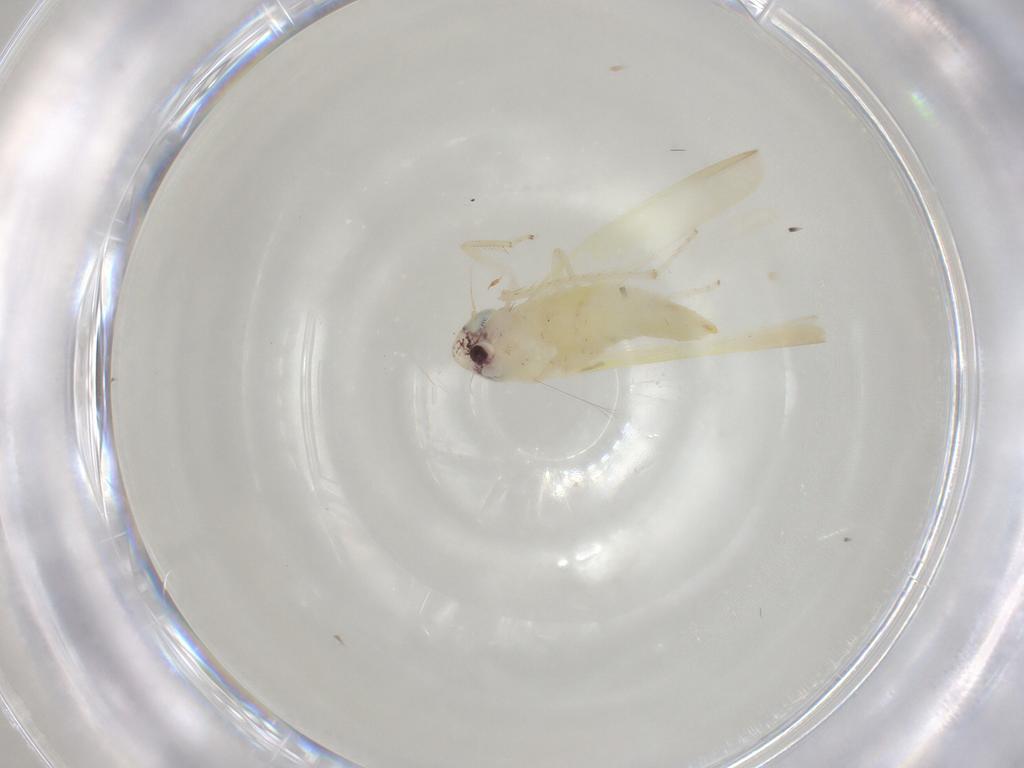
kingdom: Animalia
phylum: Arthropoda
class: Insecta
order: Hemiptera
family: Cicadellidae
